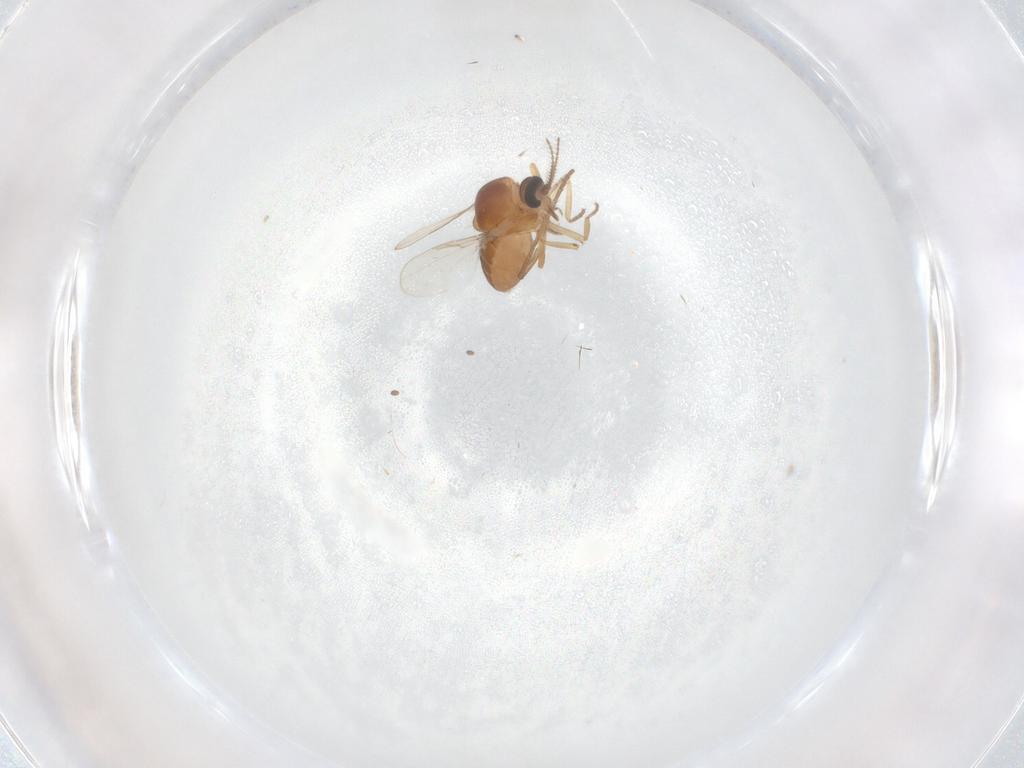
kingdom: Animalia
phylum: Arthropoda
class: Insecta
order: Diptera
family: Ceratopogonidae
